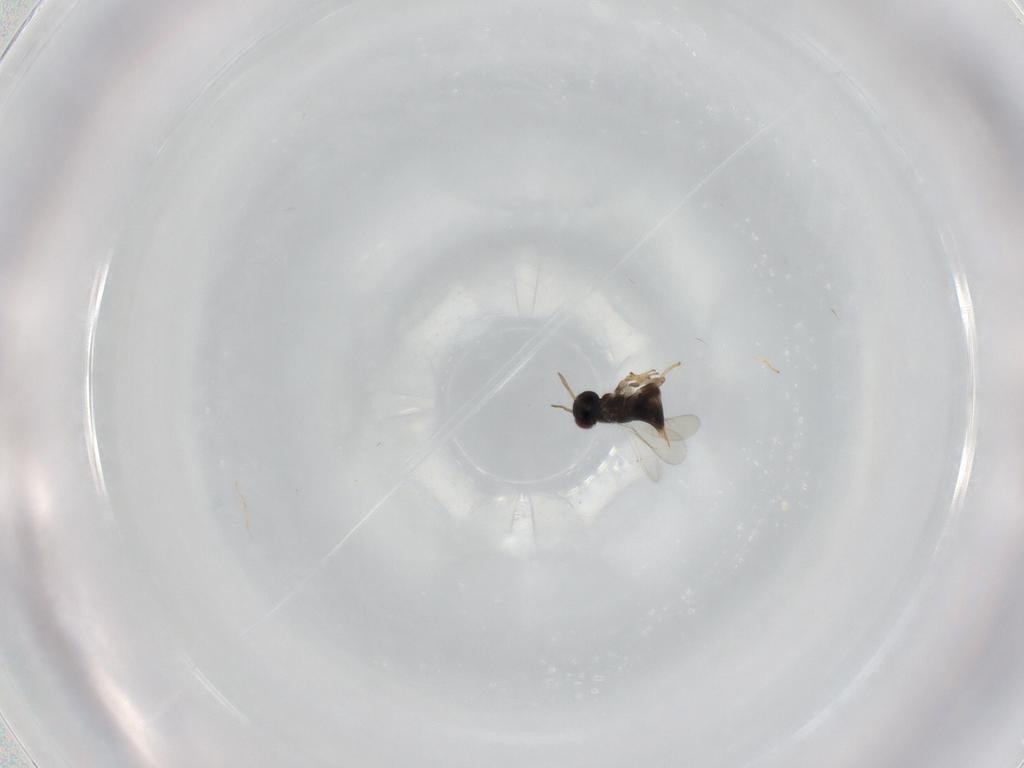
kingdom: Animalia
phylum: Arthropoda
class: Insecta
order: Hymenoptera
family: Aphelinidae
